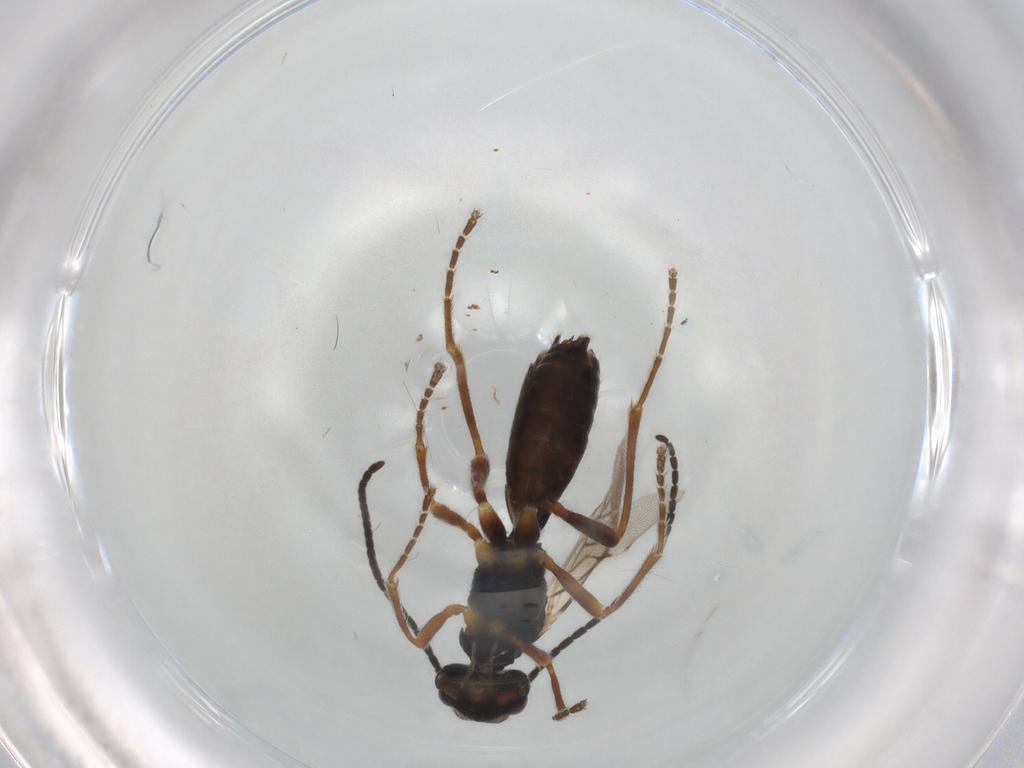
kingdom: Animalia
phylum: Arthropoda
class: Insecta
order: Hymenoptera
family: Braconidae
